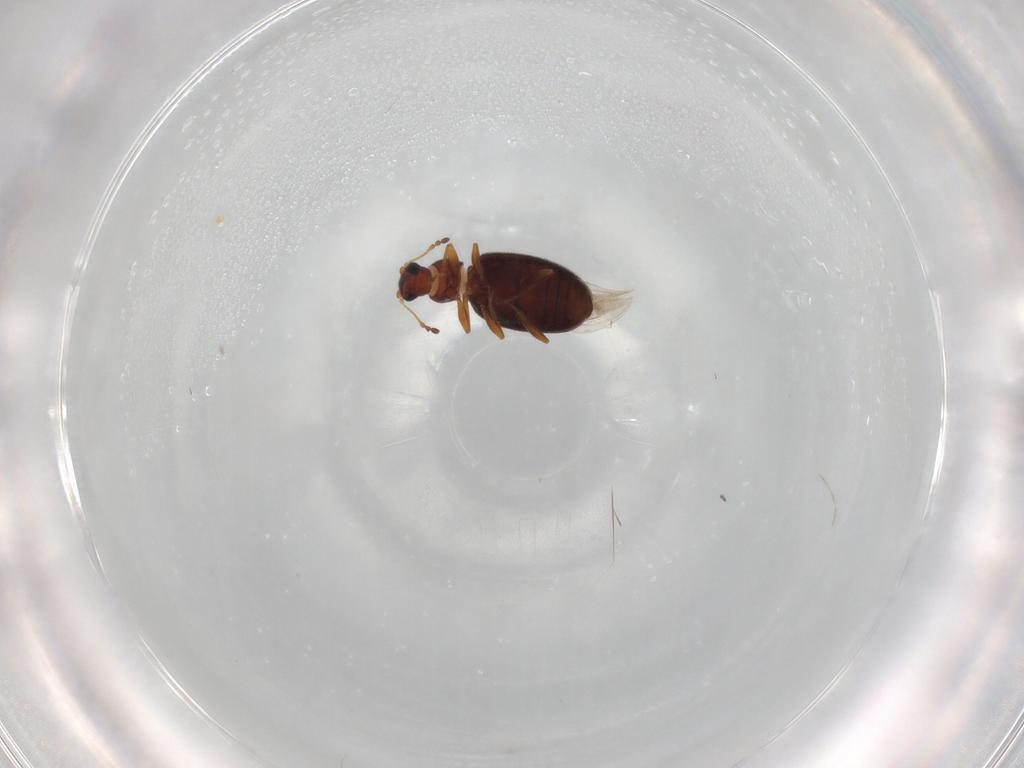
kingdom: Animalia
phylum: Arthropoda
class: Insecta
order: Coleoptera
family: Latridiidae
